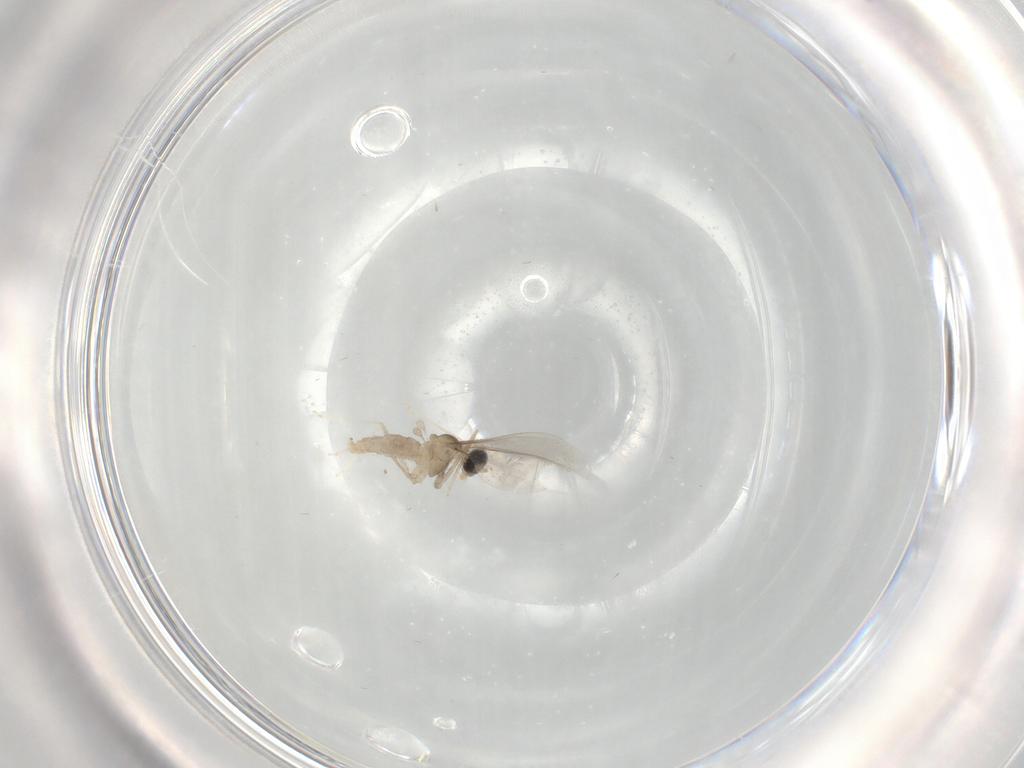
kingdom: Animalia
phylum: Arthropoda
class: Insecta
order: Diptera
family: Cecidomyiidae
